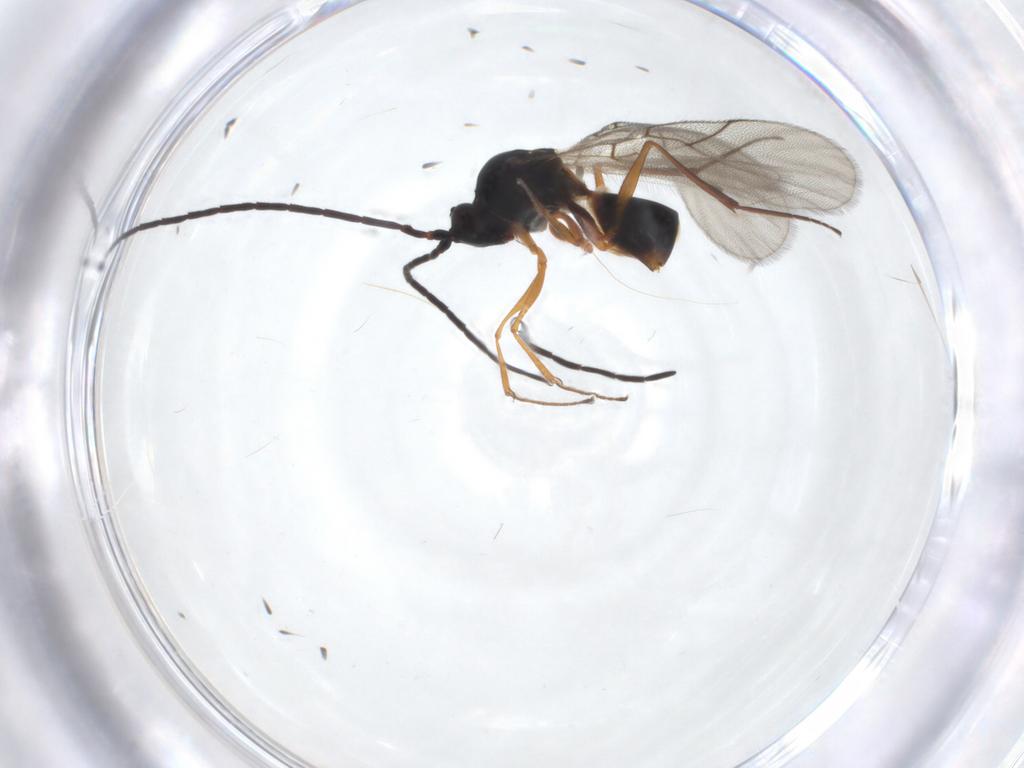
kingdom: Animalia
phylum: Arthropoda
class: Insecta
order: Hymenoptera
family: Figitidae
